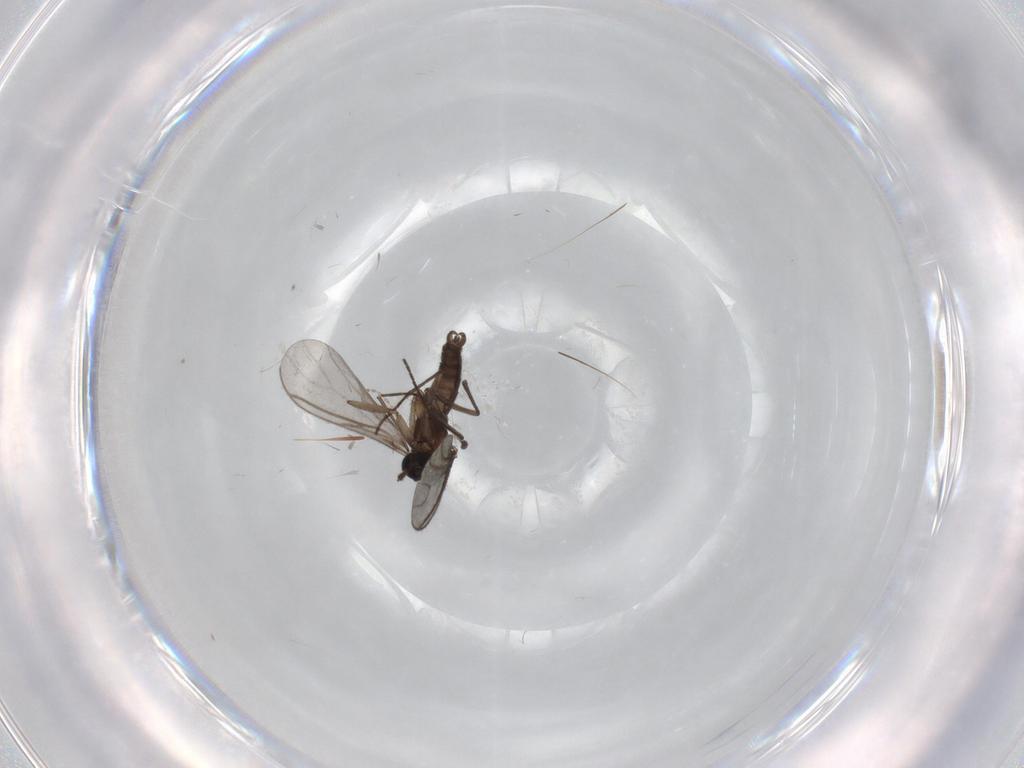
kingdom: Animalia
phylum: Arthropoda
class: Insecta
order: Diptera
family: Sciaridae
